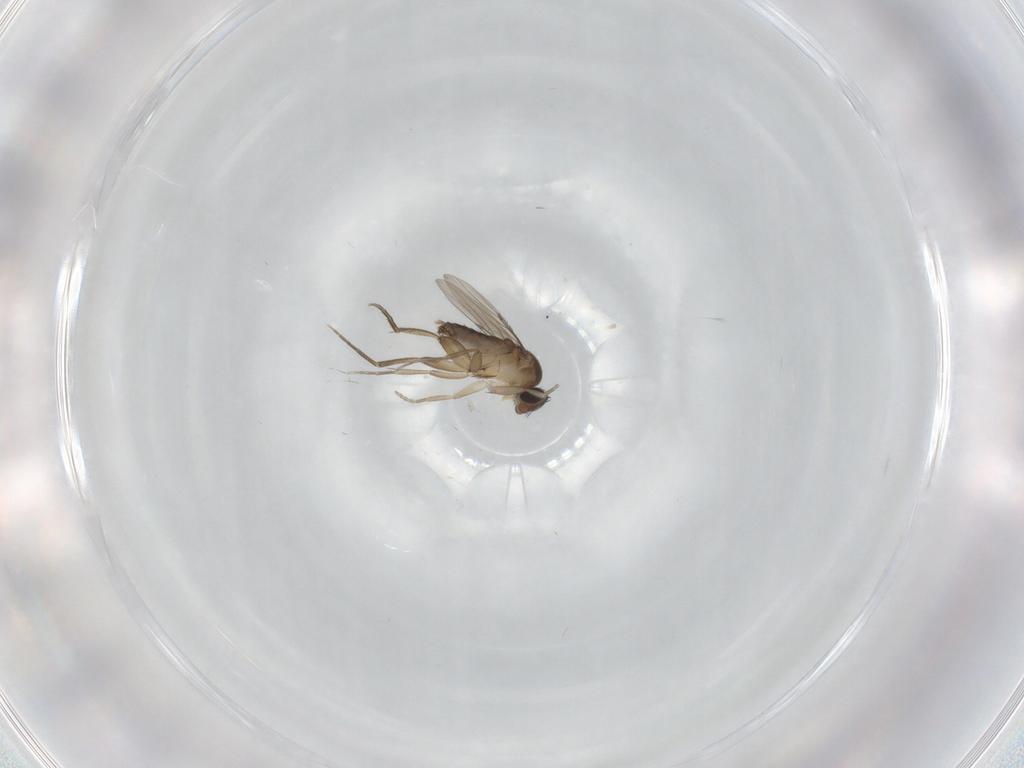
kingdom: Animalia
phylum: Arthropoda
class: Insecta
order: Diptera
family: Phoridae
